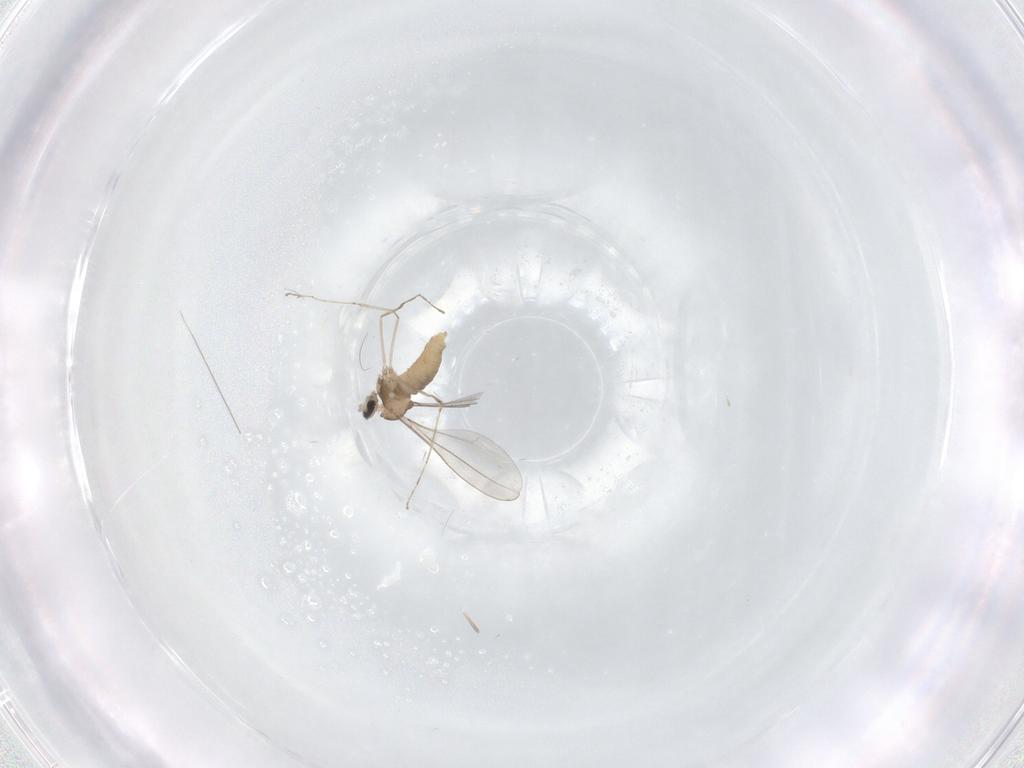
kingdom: Animalia
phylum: Arthropoda
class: Insecta
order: Diptera
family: Cecidomyiidae
